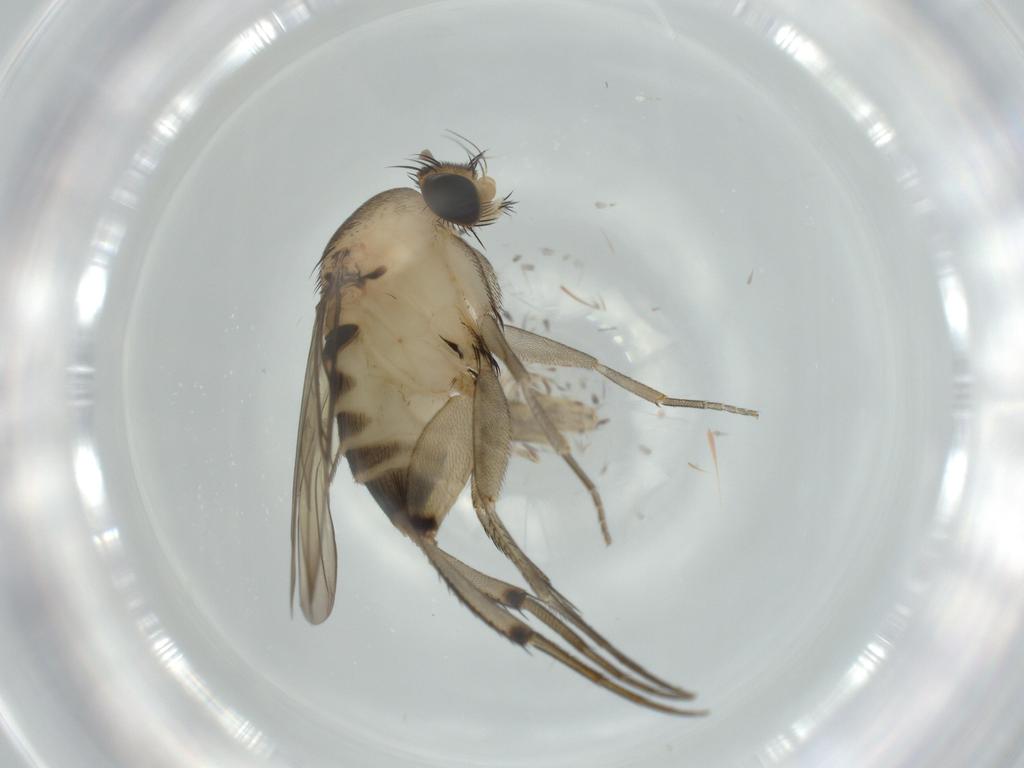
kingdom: Animalia
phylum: Arthropoda
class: Insecta
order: Diptera
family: Phoridae
